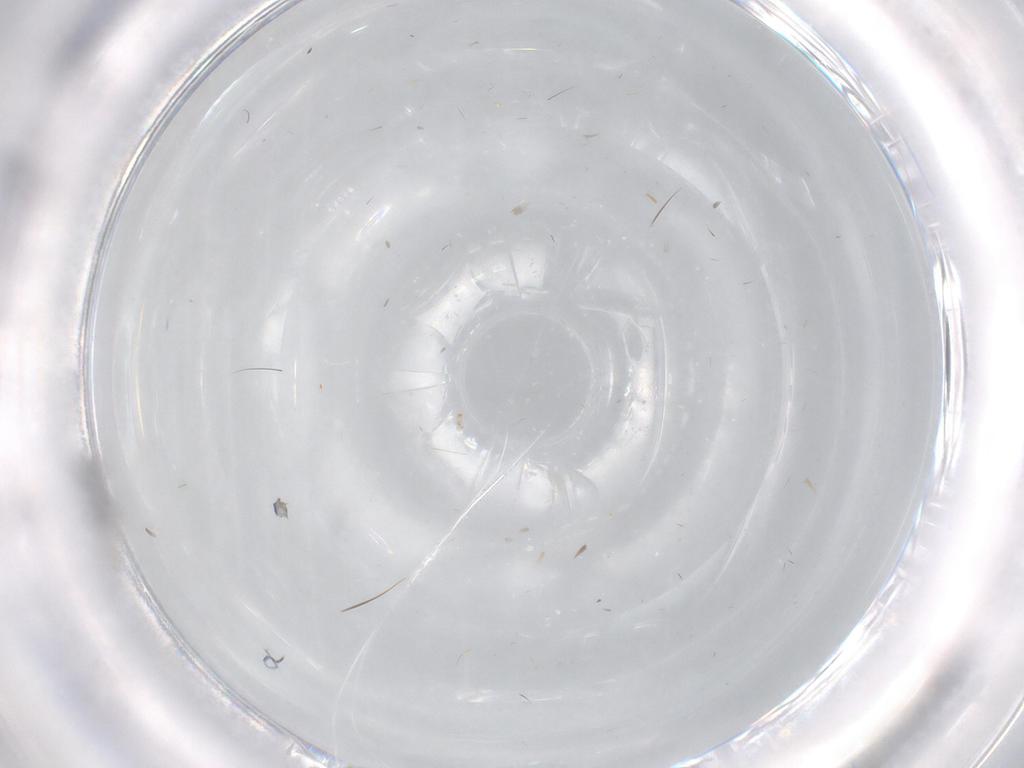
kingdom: Animalia
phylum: Arthropoda
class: Insecta
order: Hymenoptera
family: Eulophidae
